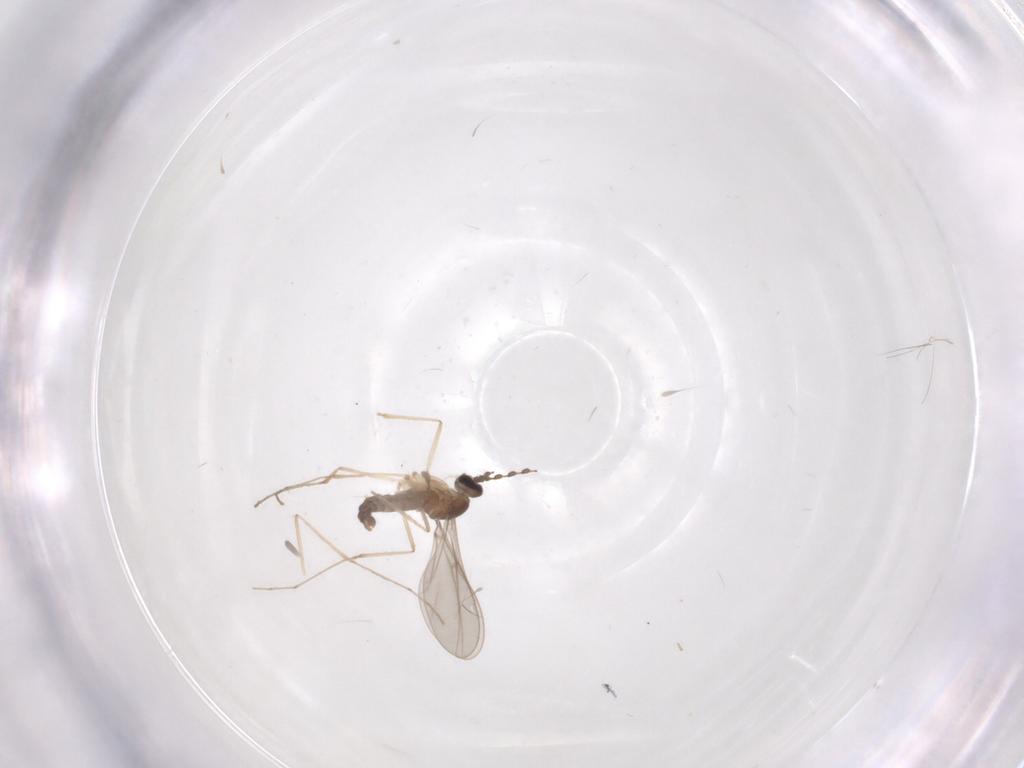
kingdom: Animalia
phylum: Arthropoda
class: Insecta
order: Diptera
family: Cecidomyiidae
